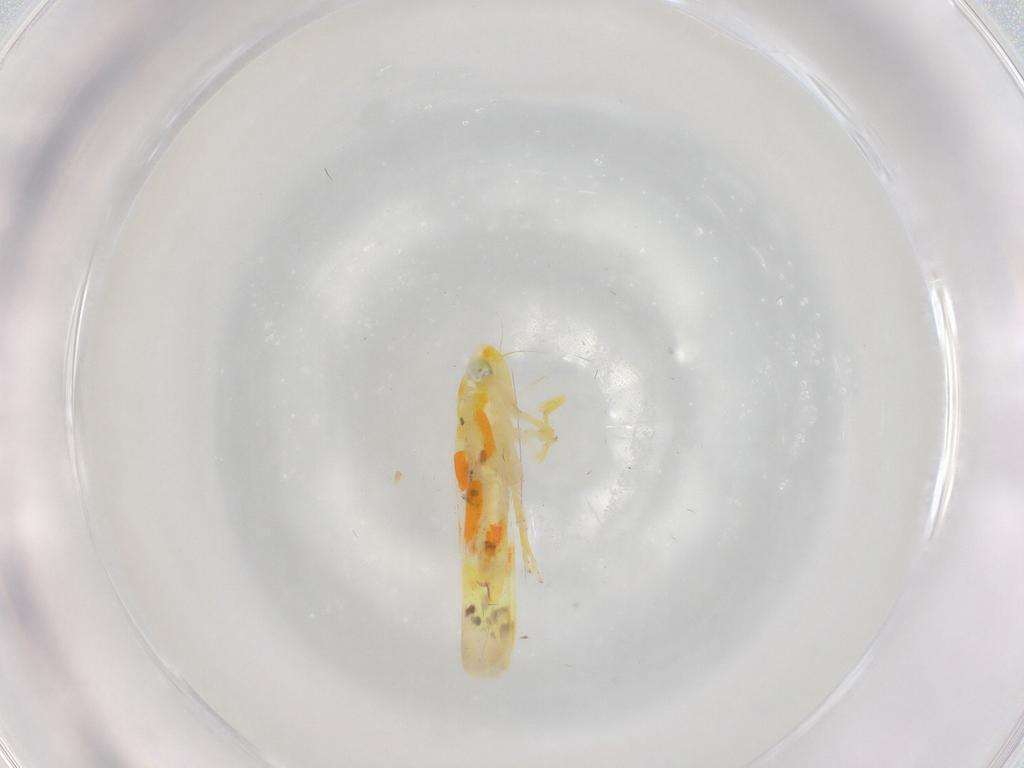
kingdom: Animalia
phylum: Arthropoda
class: Insecta
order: Hemiptera
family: Cicadellidae
